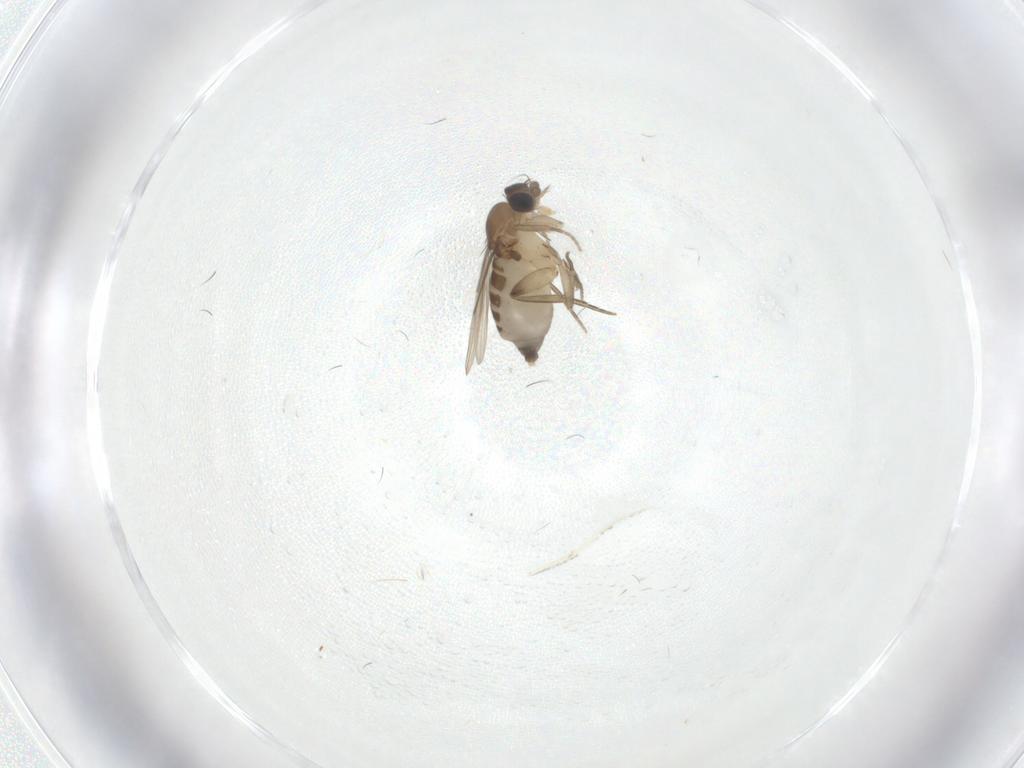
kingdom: Animalia
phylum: Arthropoda
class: Insecta
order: Diptera
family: Phoridae
